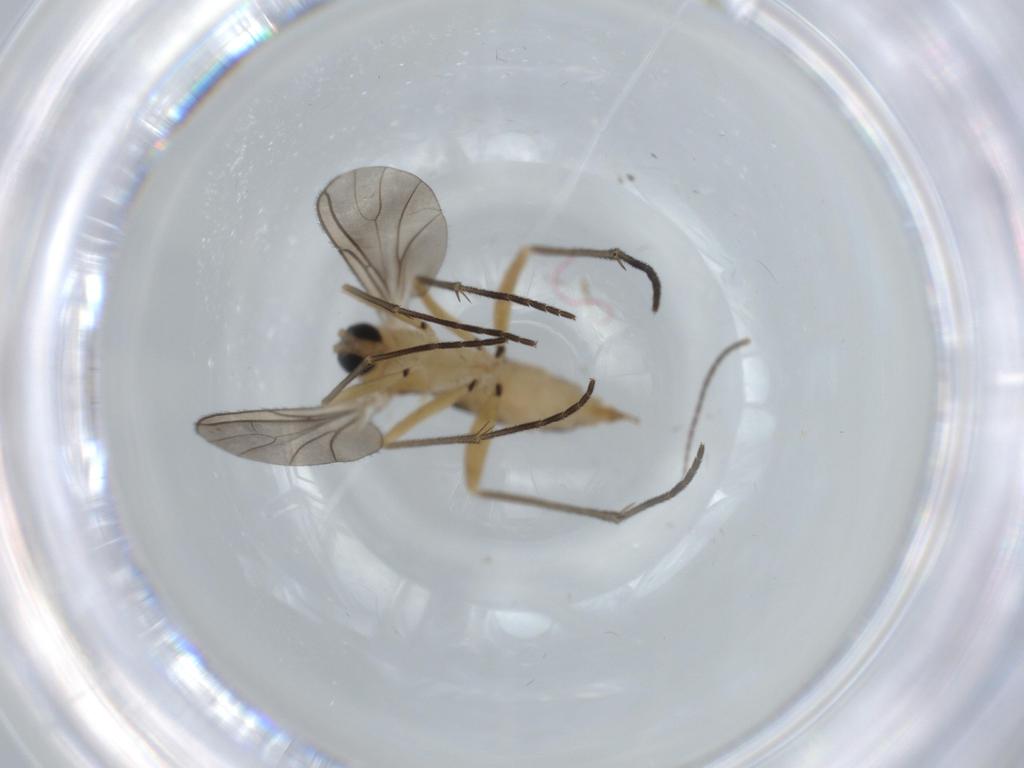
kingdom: Animalia
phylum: Arthropoda
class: Insecta
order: Diptera
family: Sciaridae
